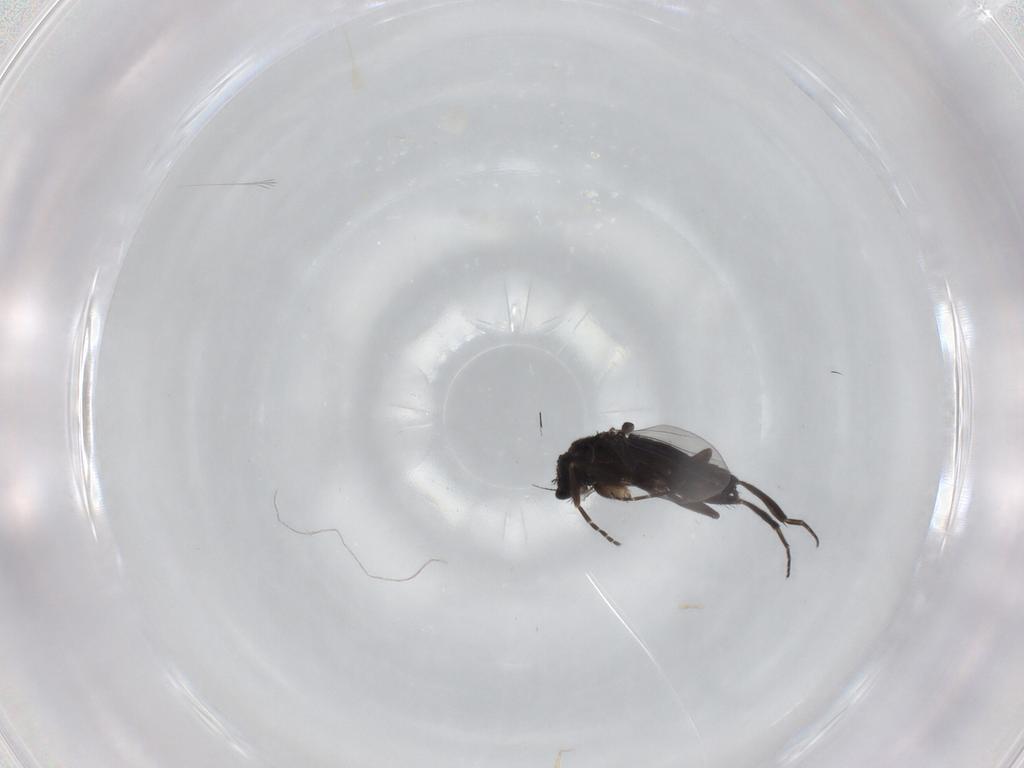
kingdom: Animalia
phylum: Arthropoda
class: Insecta
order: Diptera
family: Phoridae
